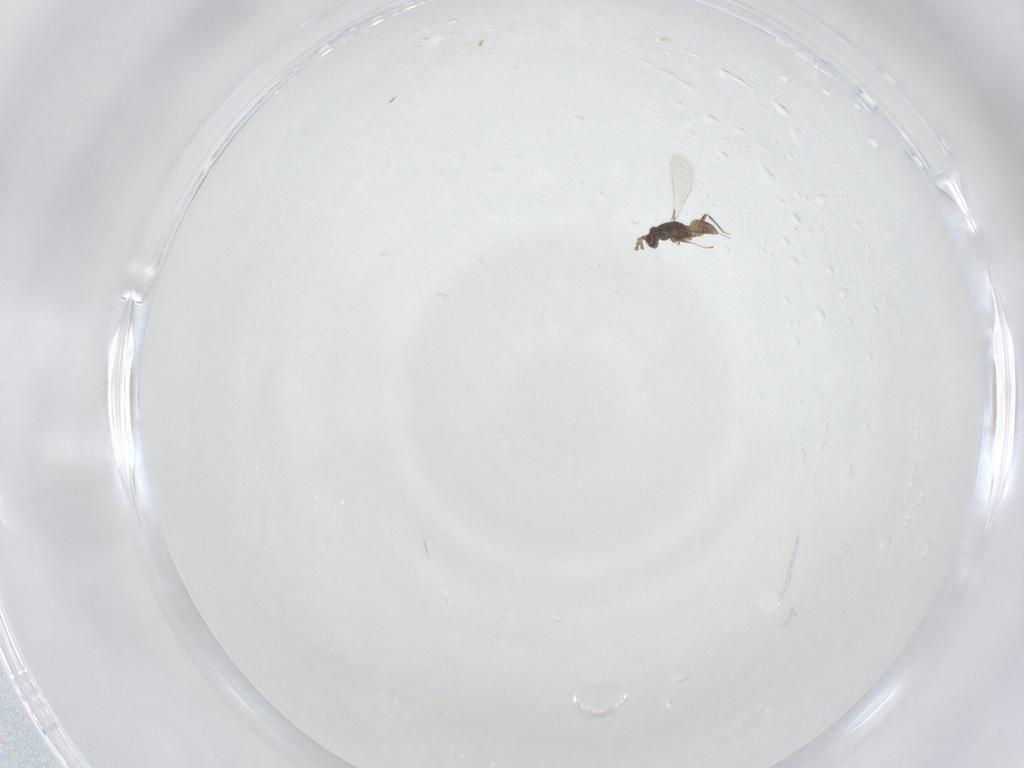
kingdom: Animalia
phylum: Arthropoda
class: Insecta
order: Hymenoptera
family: Mymaridae
